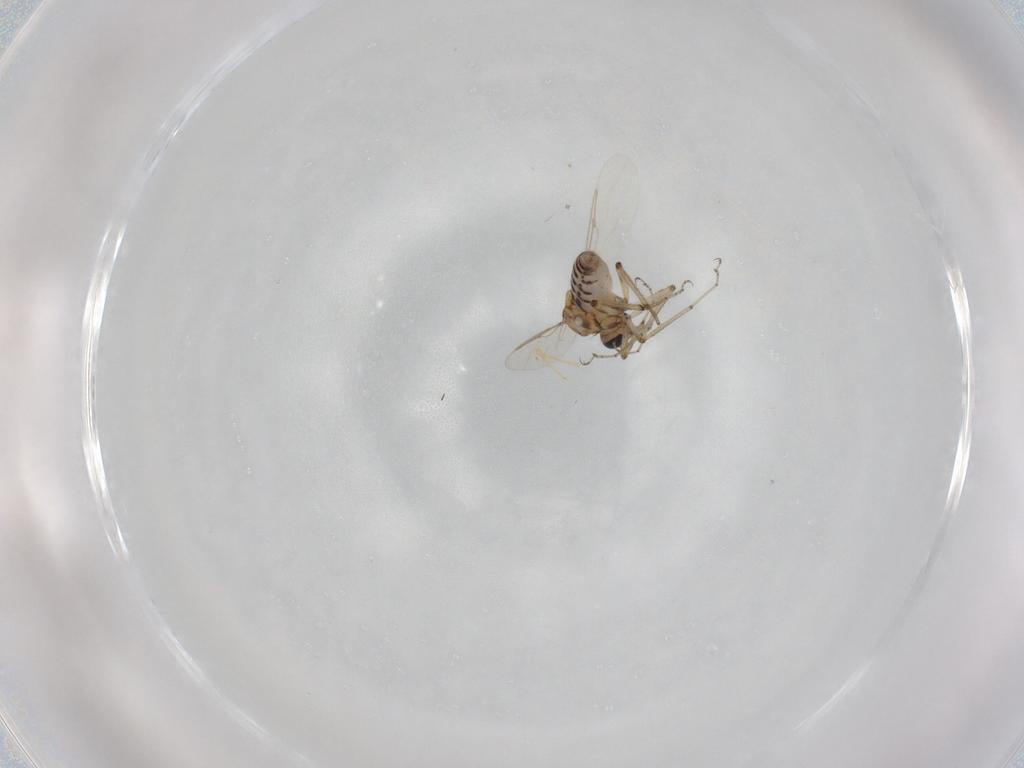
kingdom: Animalia
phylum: Arthropoda
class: Insecta
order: Diptera
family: Ceratopogonidae
